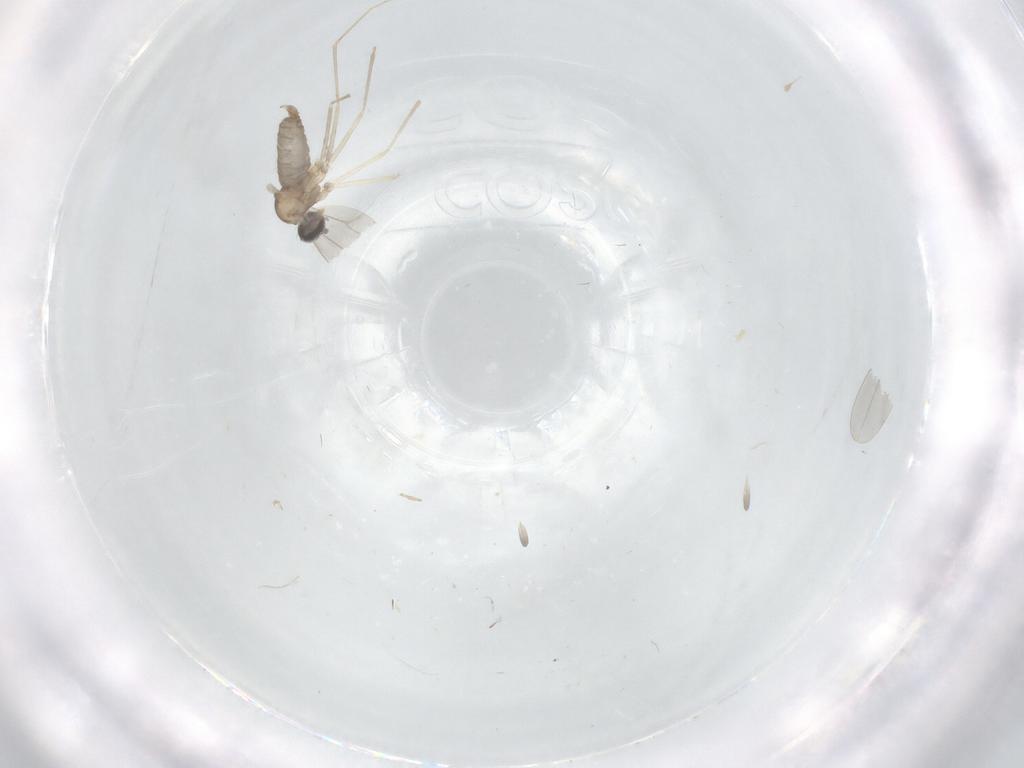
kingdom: Animalia
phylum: Arthropoda
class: Insecta
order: Diptera
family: Cecidomyiidae
